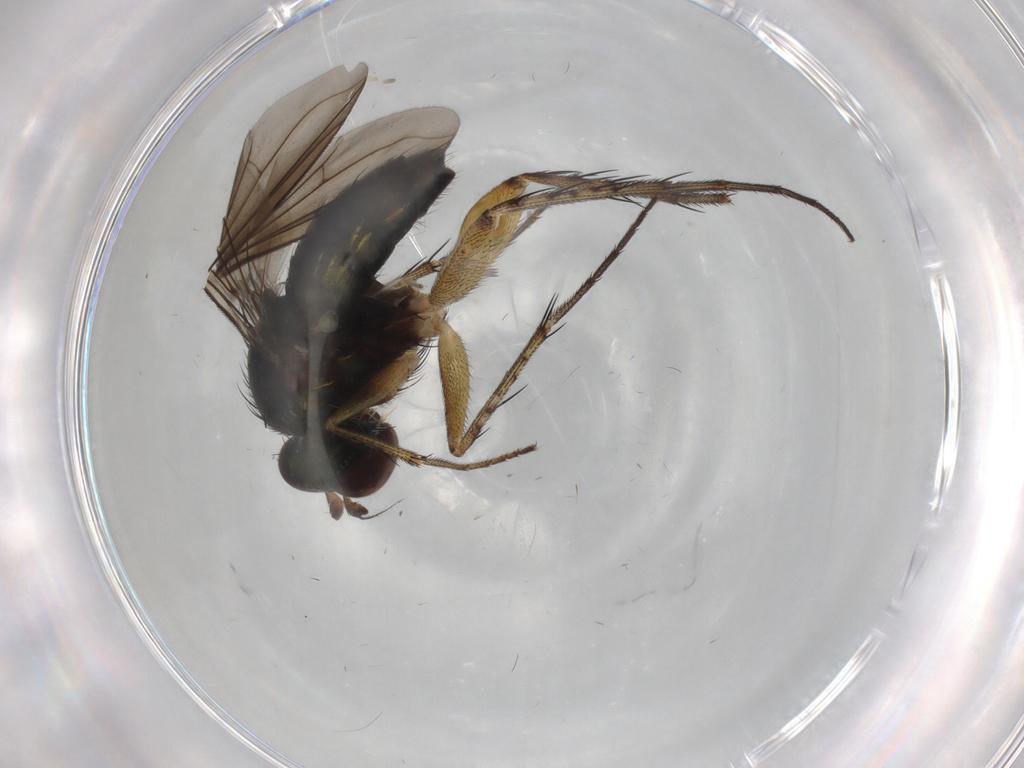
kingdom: Animalia
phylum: Arthropoda
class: Insecta
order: Diptera
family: Dolichopodidae
